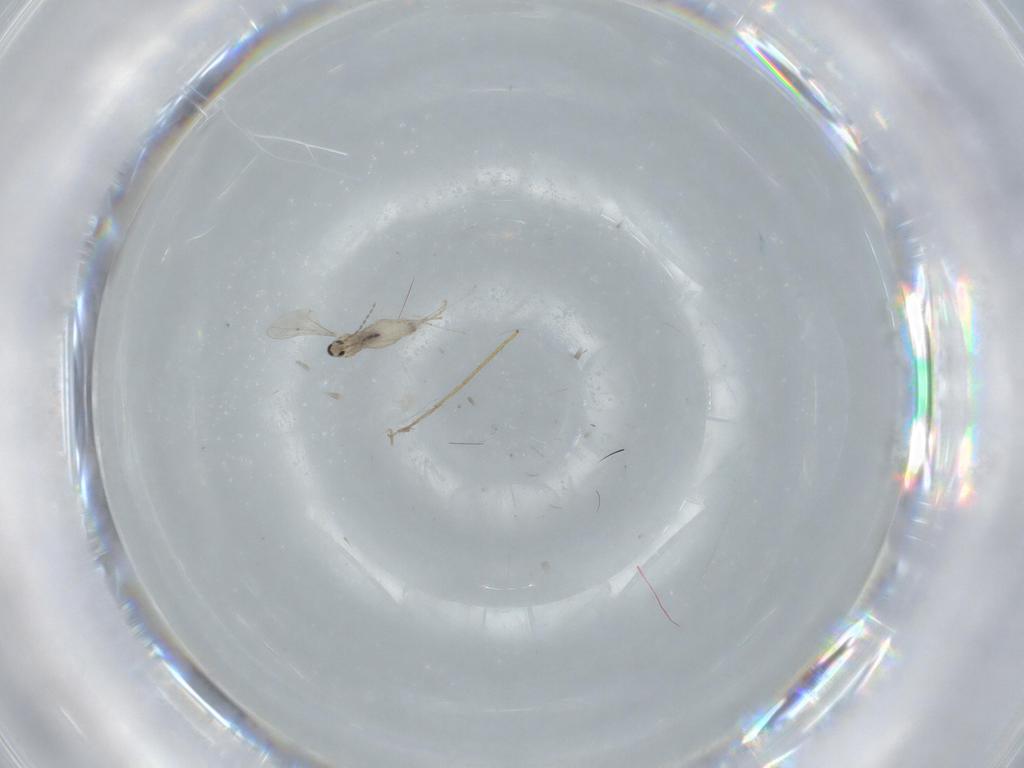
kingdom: Animalia
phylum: Arthropoda
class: Insecta
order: Diptera
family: Cecidomyiidae
